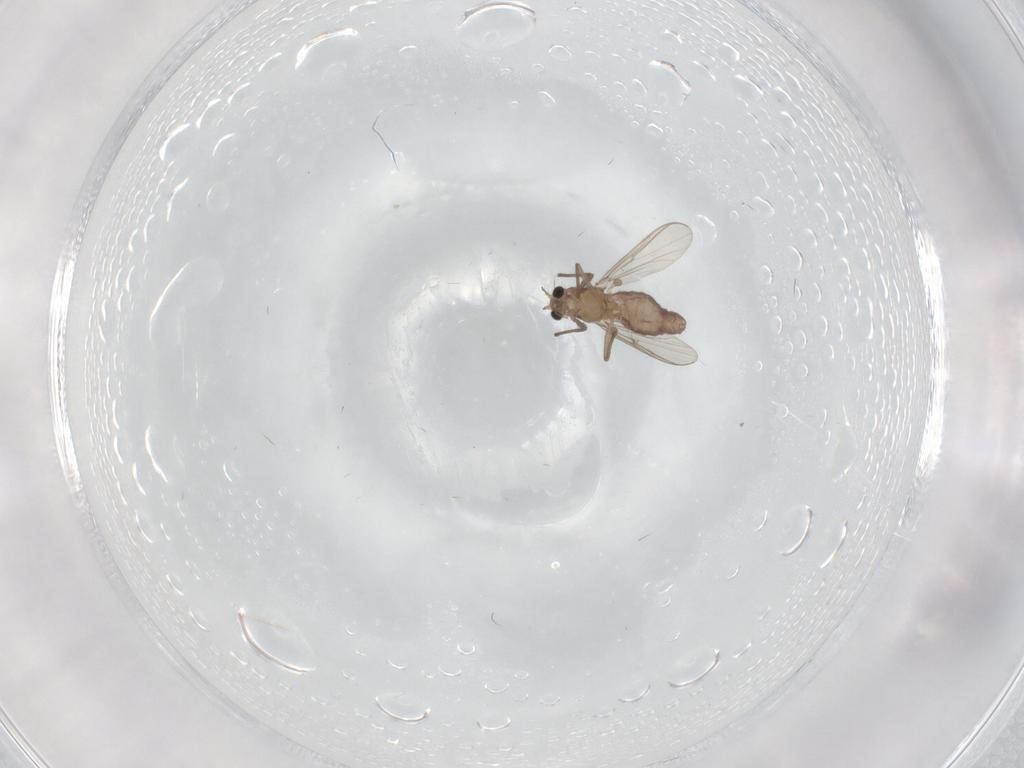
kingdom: Animalia
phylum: Arthropoda
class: Insecta
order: Diptera
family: Chironomidae
